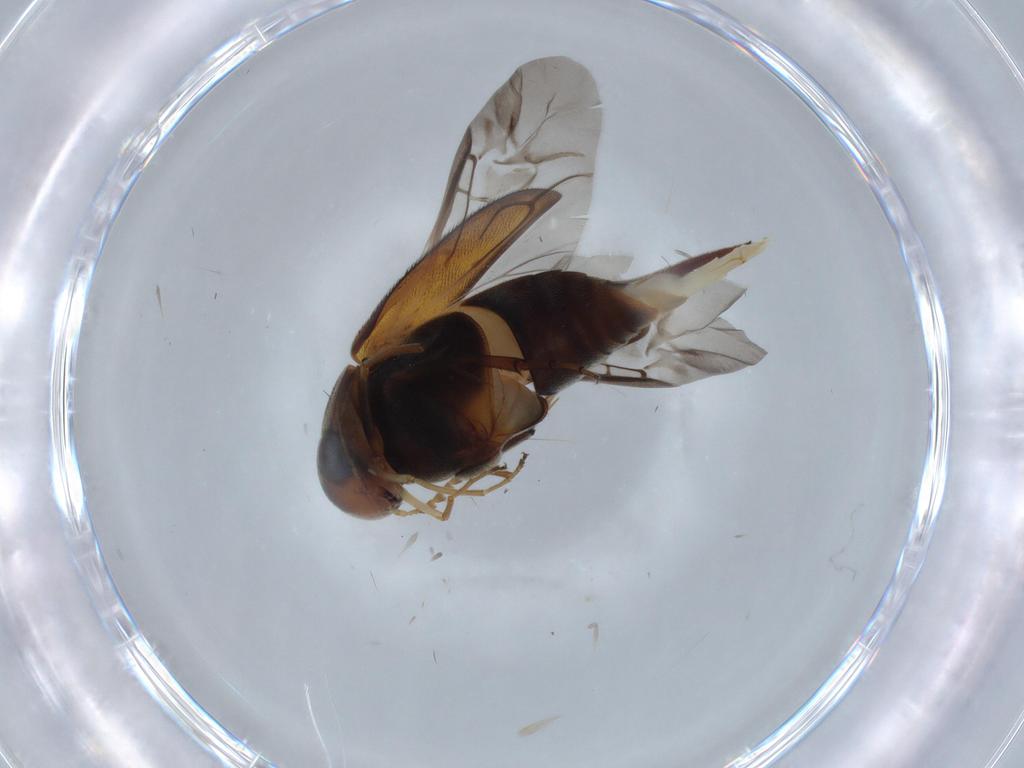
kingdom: Animalia
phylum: Arthropoda
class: Insecta
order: Coleoptera
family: Mordellidae
